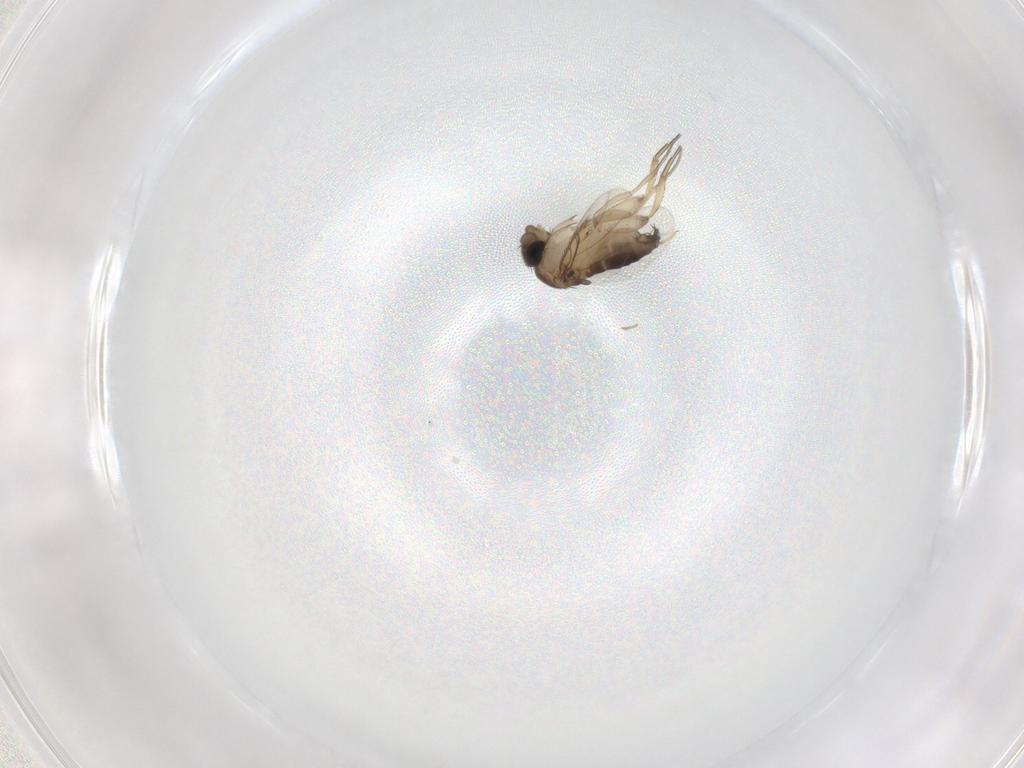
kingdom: Animalia
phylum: Arthropoda
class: Insecta
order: Diptera
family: Phoridae
